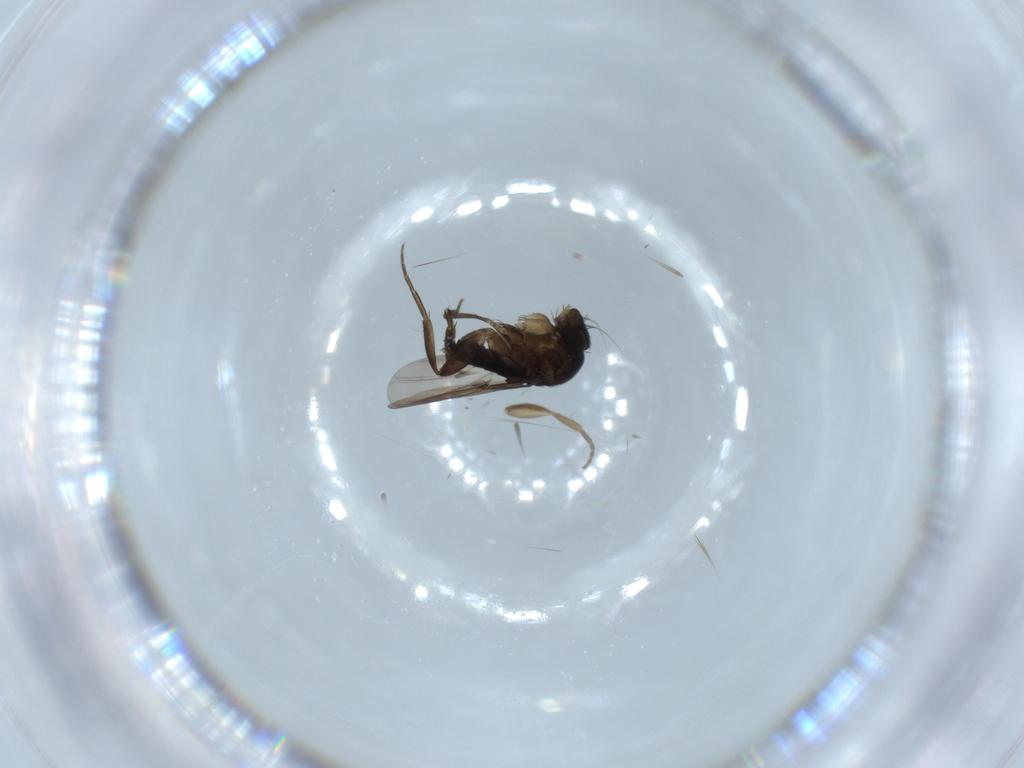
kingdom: Animalia
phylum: Arthropoda
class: Insecta
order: Diptera
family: Phoridae
